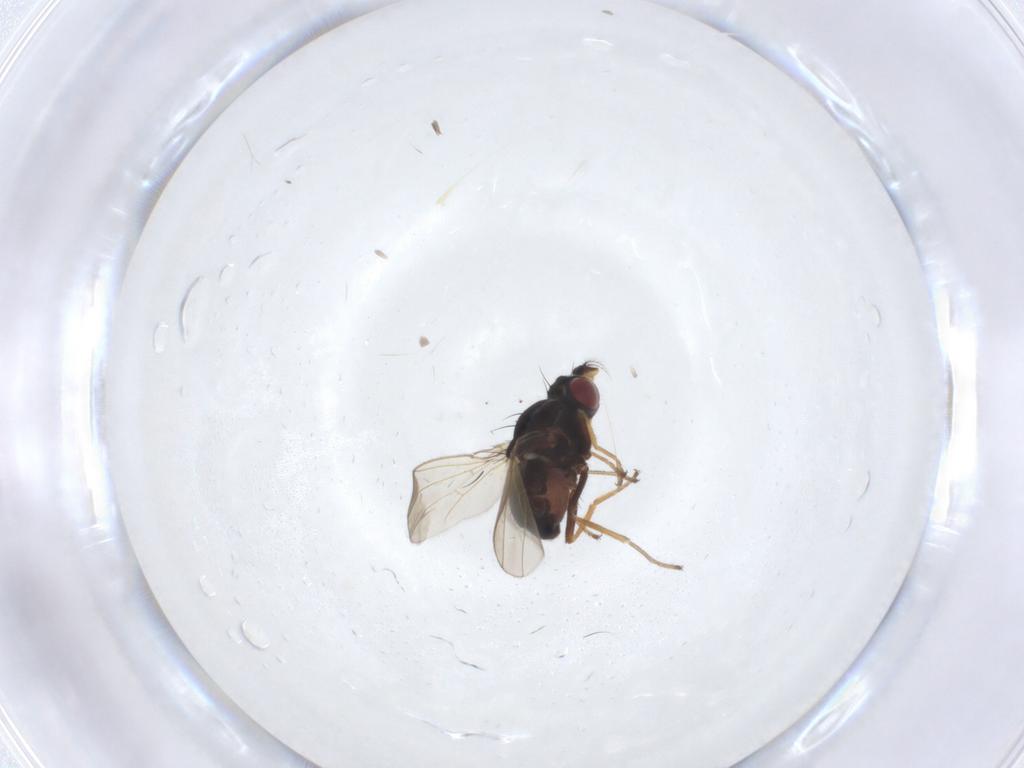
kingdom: Animalia
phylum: Arthropoda
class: Insecta
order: Diptera
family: Ephydridae
